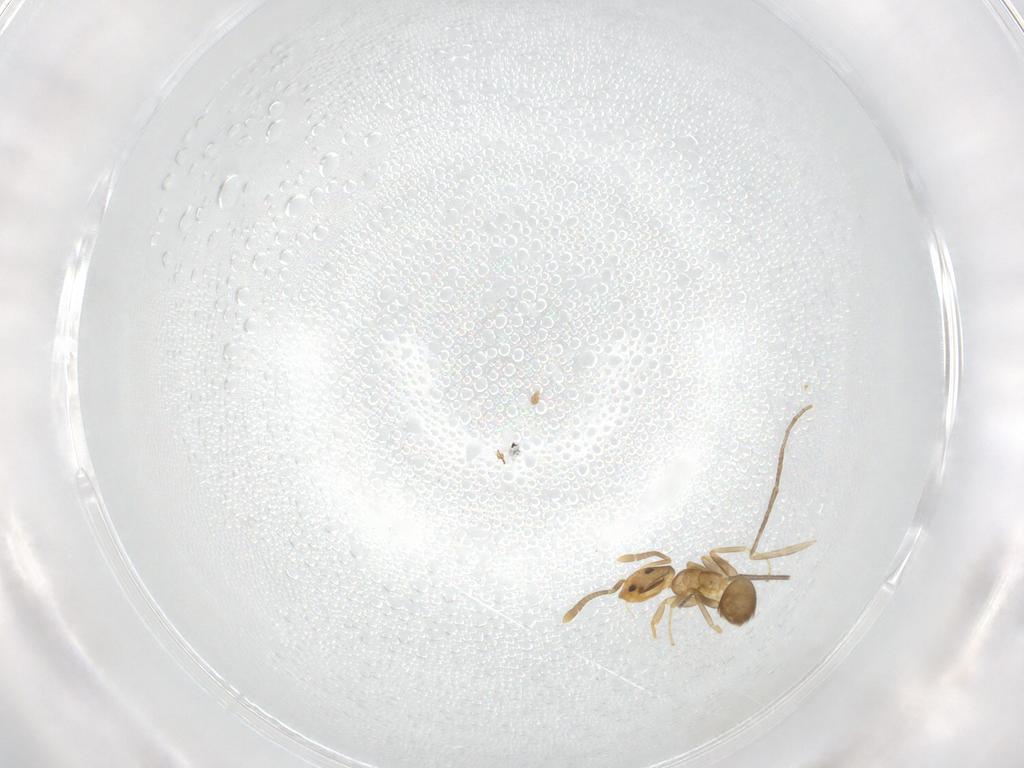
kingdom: Animalia
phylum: Arthropoda
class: Insecta
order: Hymenoptera
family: Formicidae
